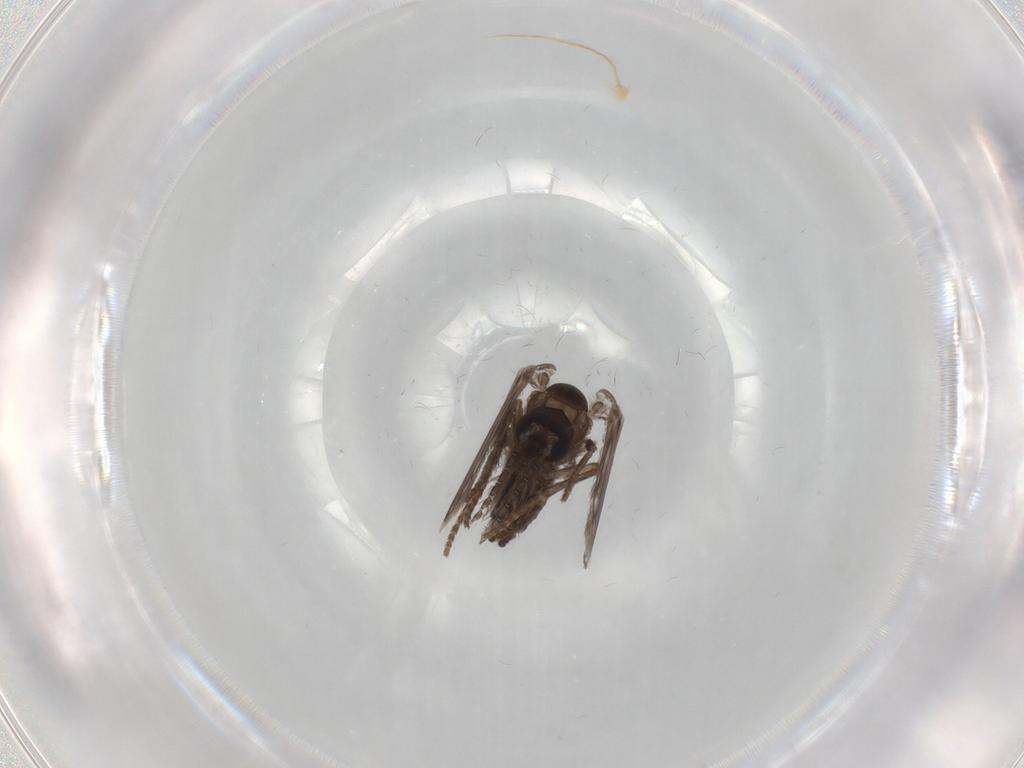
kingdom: Animalia
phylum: Arthropoda
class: Insecta
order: Diptera
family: Psychodidae
